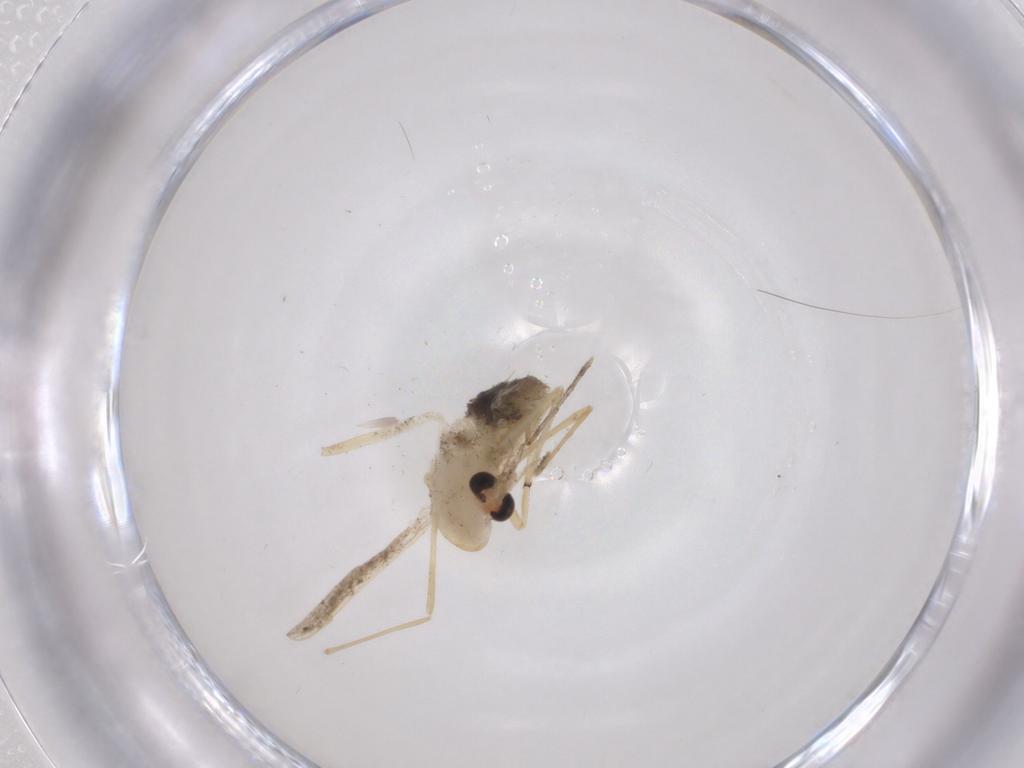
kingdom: Animalia
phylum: Arthropoda
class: Insecta
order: Diptera
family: Chironomidae
